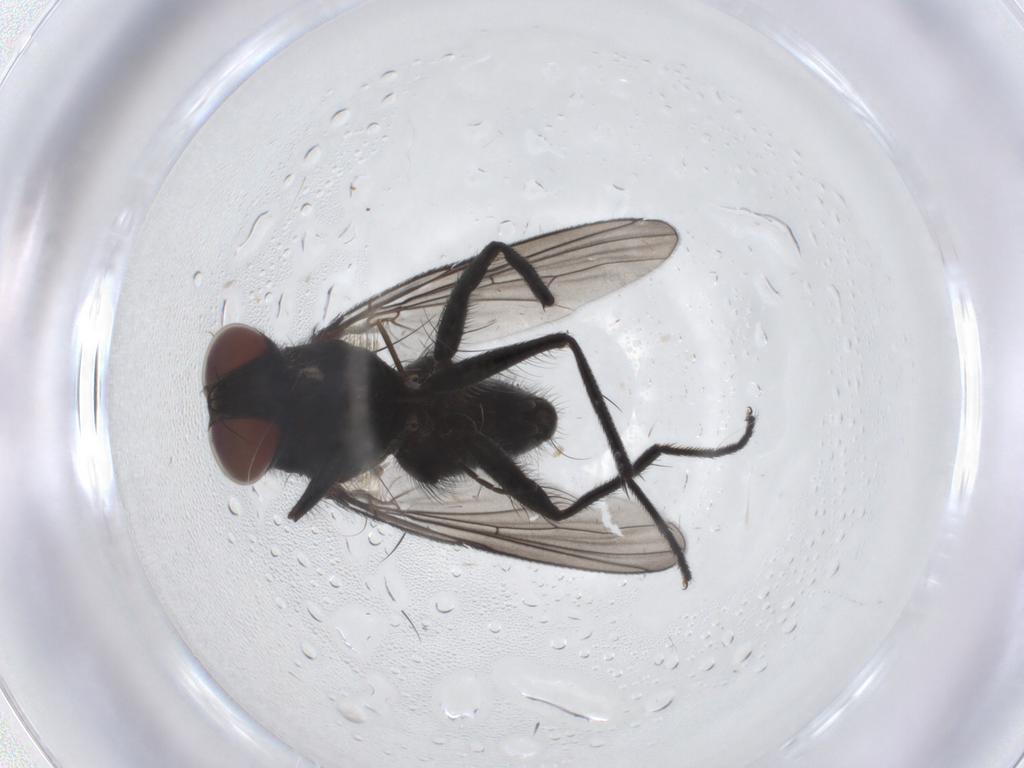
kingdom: Animalia
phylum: Arthropoda
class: Insecta
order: Diptera
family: Muscidae
